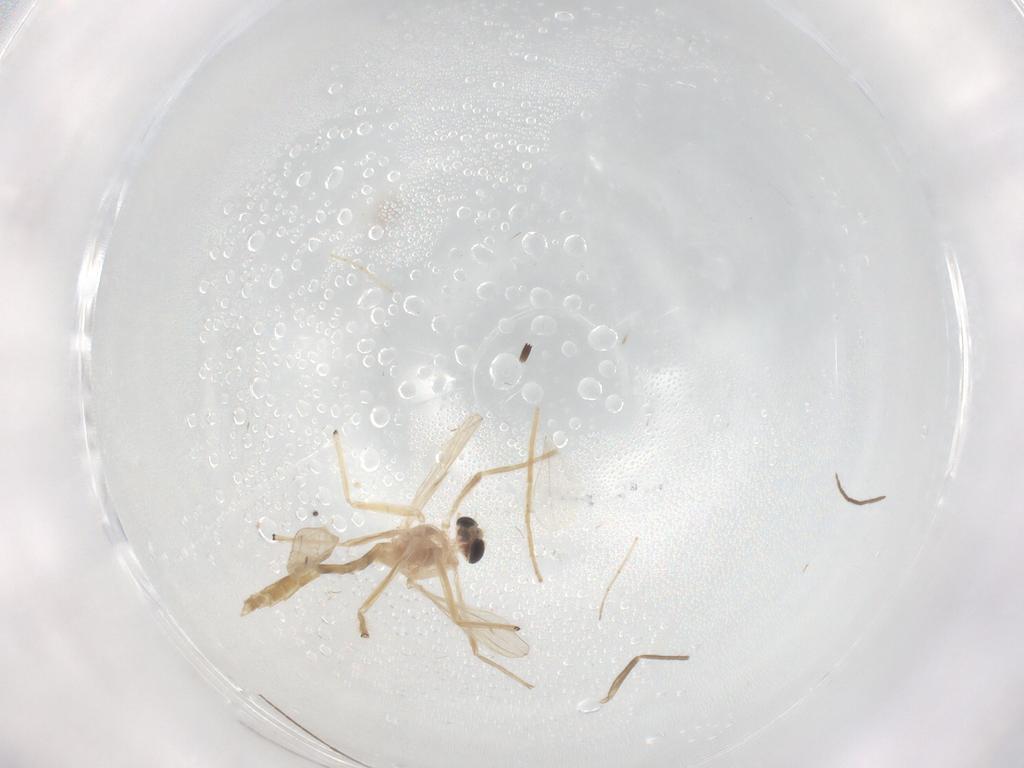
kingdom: Animalia
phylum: Arthropoda
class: Insecta
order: Diptera
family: Chironomidae
